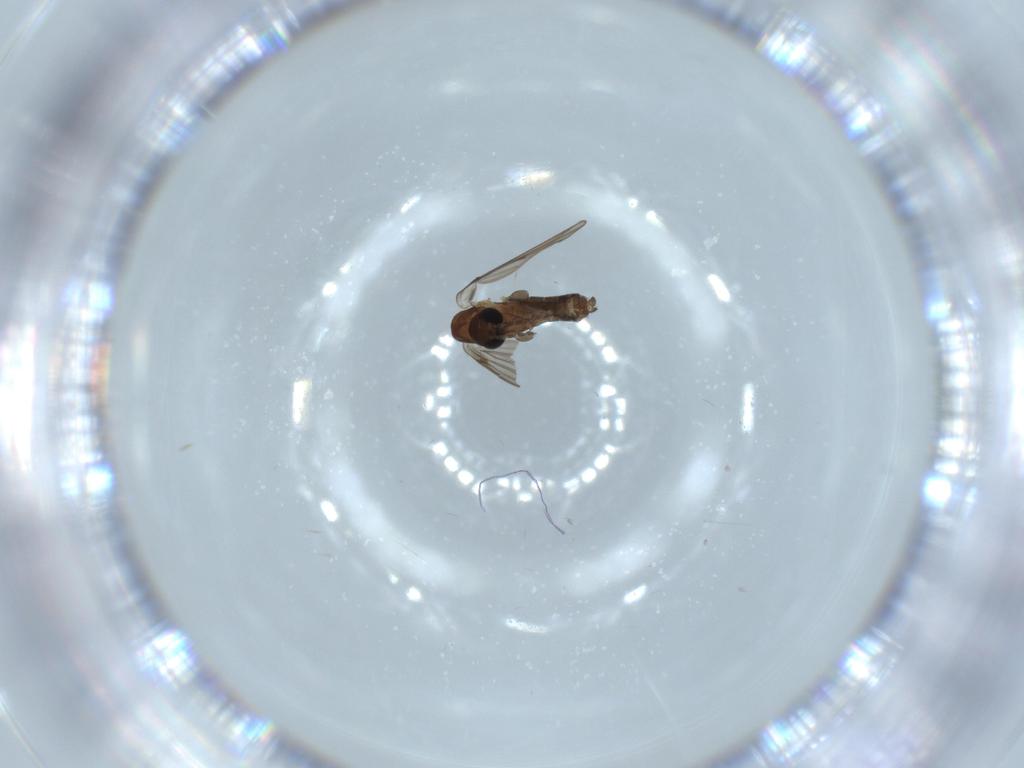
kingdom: Animalia
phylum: Arthropoda
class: Insecta
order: Diptera
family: Psychodidae
